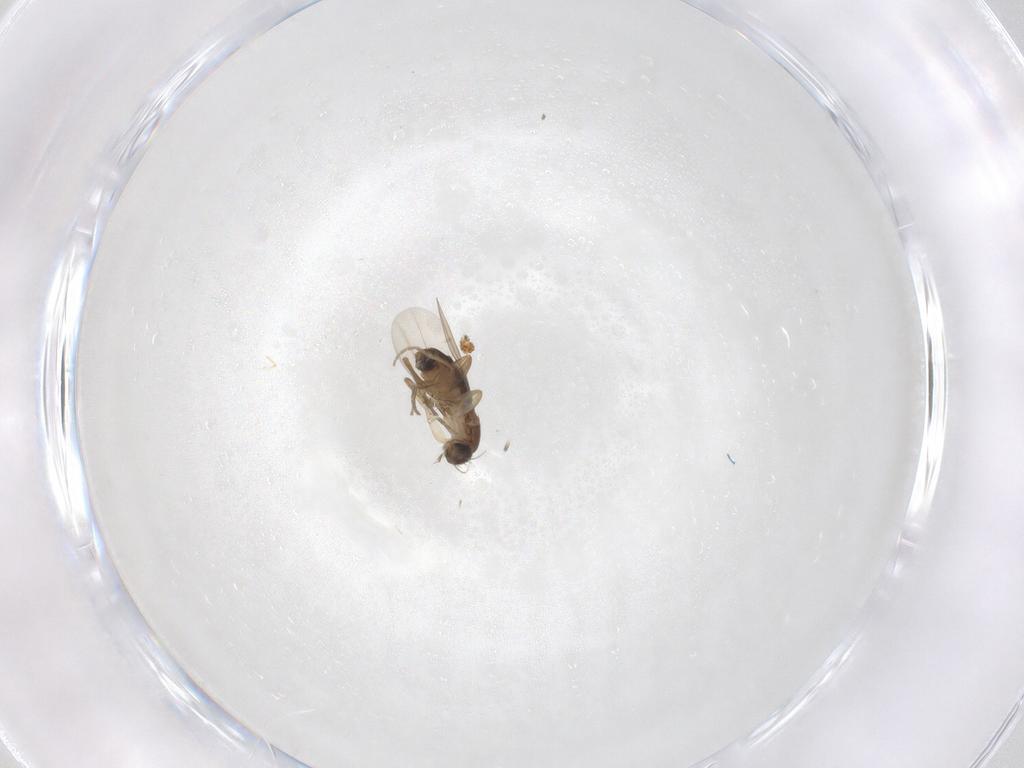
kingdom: Animalia
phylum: Arthropoda
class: Insecta
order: Diptera
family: Phoridae
